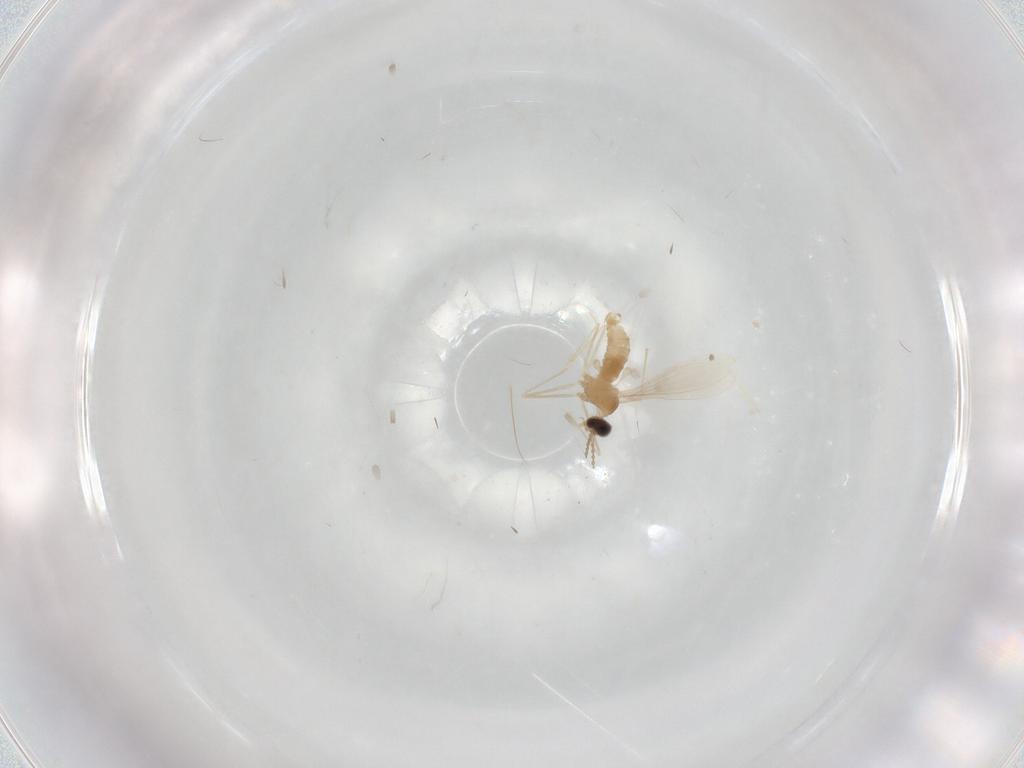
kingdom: Animalia
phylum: Arthropoda
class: Insecta
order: Diptera
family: Cecidomyiidae
